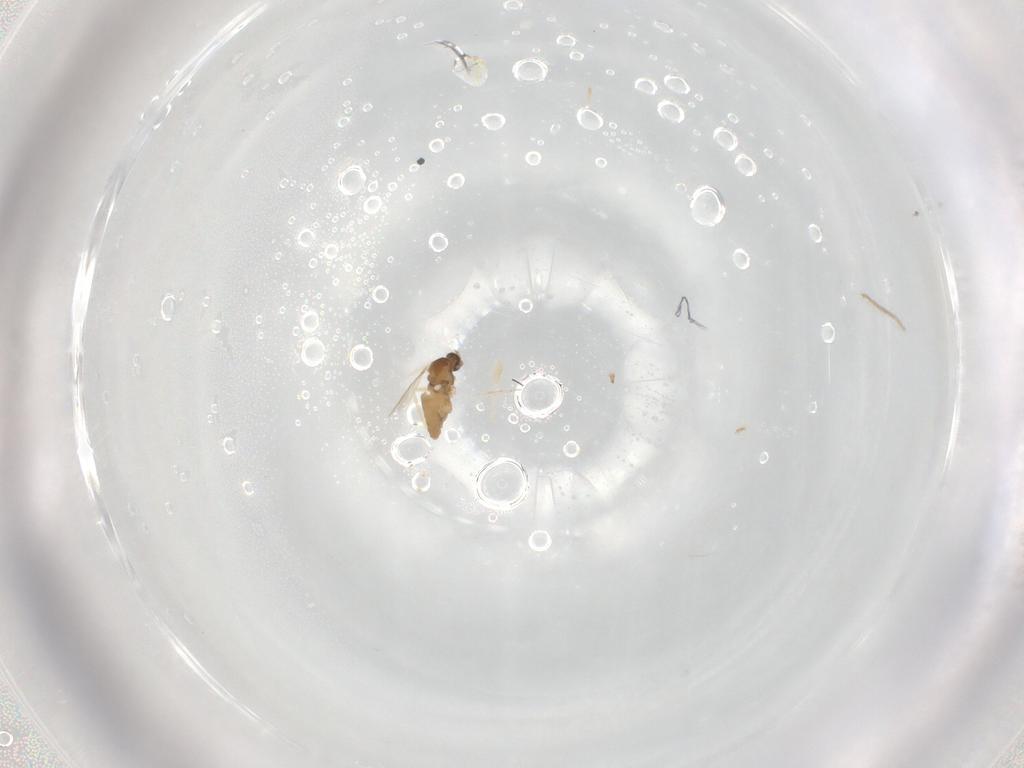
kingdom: Animalia
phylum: Arthropoda
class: Insecta
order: Diptera
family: Neriidae
